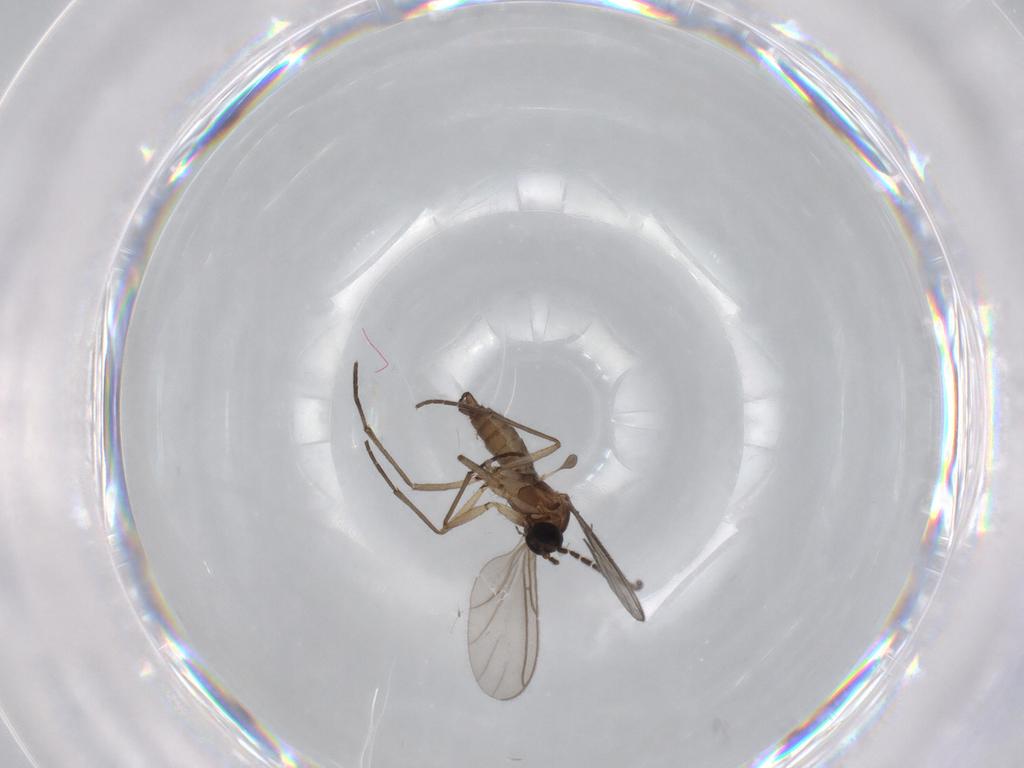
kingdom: Animalia
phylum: Arthropoda
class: Insecta
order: Diptera
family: Sciaridae
